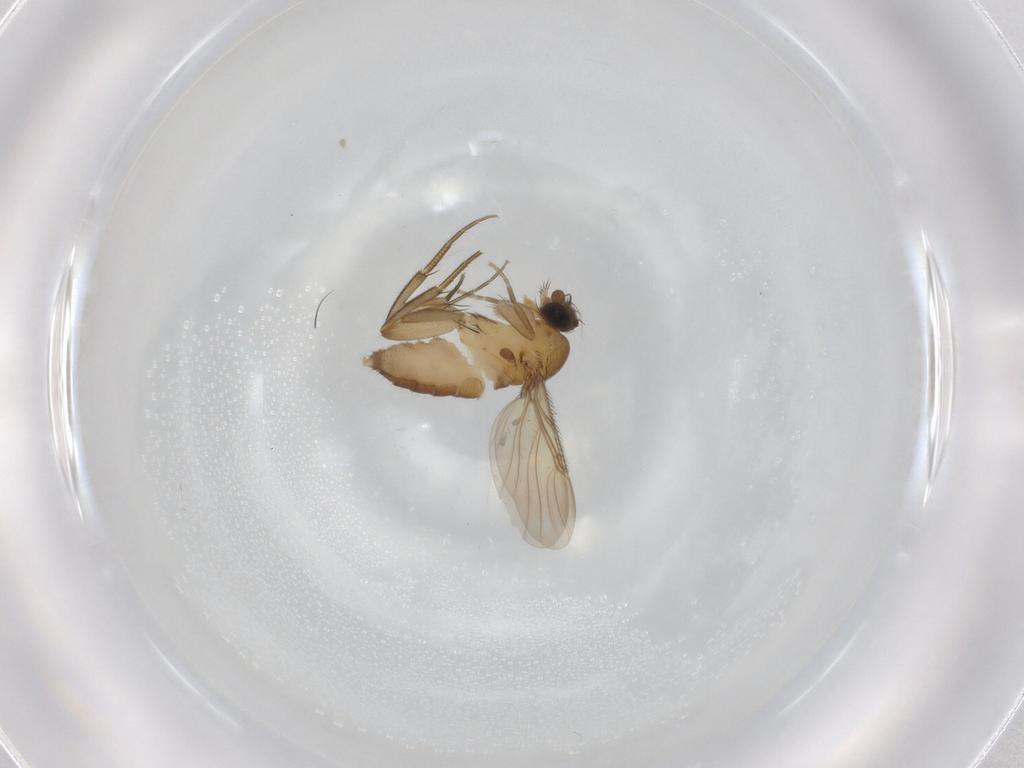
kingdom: Animalia
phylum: Arthropoda
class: Insecta
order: Diptera
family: Phoridae
